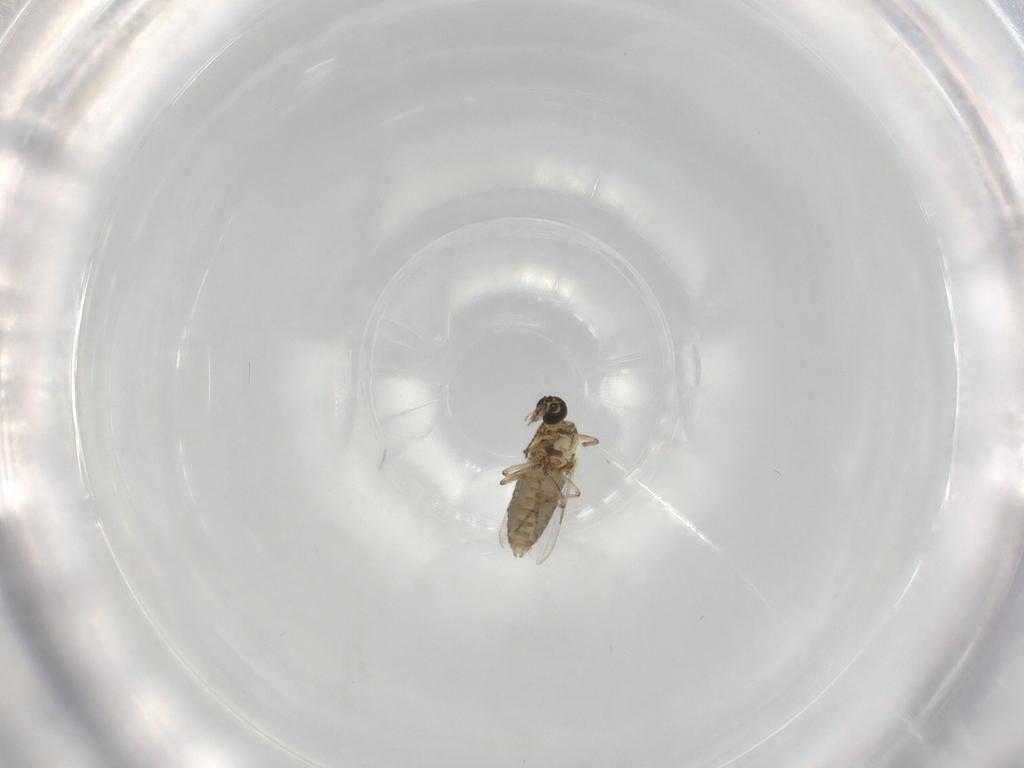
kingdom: Animalia
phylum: Arthropoda
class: Insecta
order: Diptera
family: Ceratopogonidae
